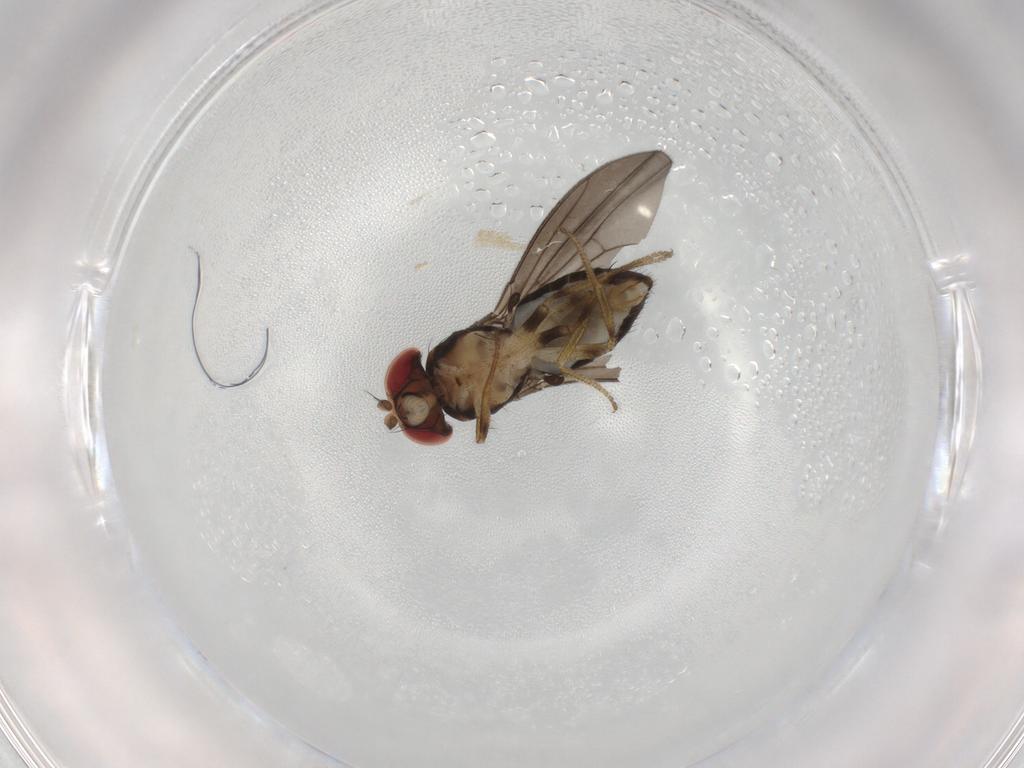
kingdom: Animalia
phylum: Arthropoda
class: Insecta
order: Diptera
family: Drosophilidae
